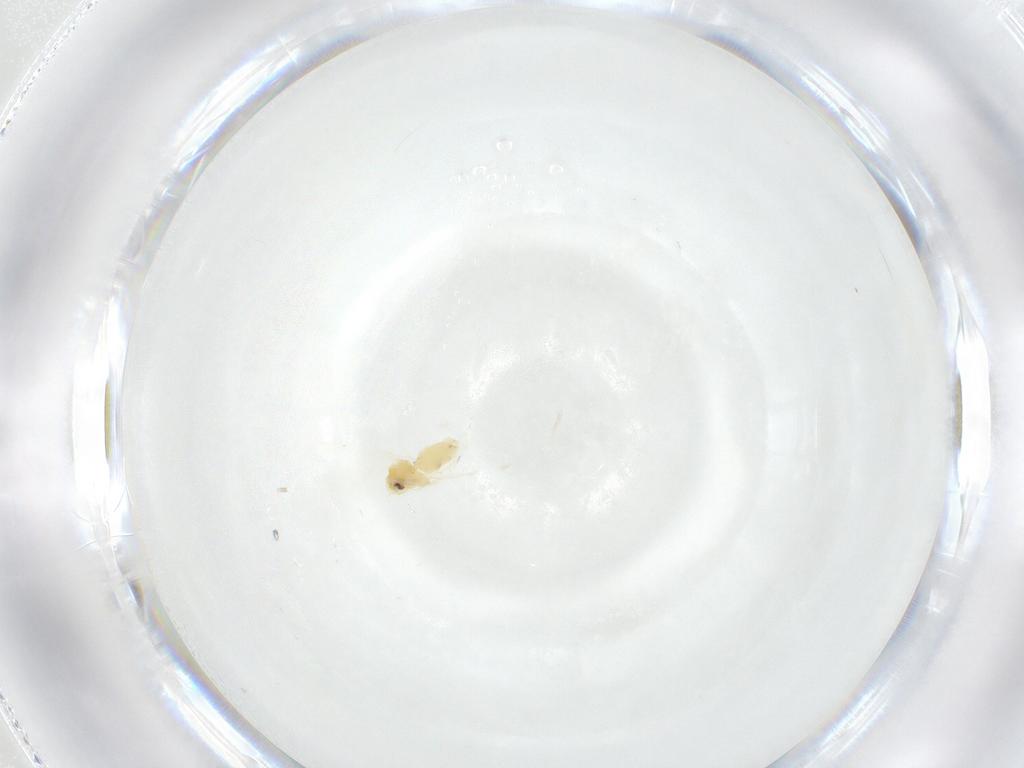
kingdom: Animalia
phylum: Arthropoda
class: Insecta
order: Hemiptera
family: Aleyrodidae
